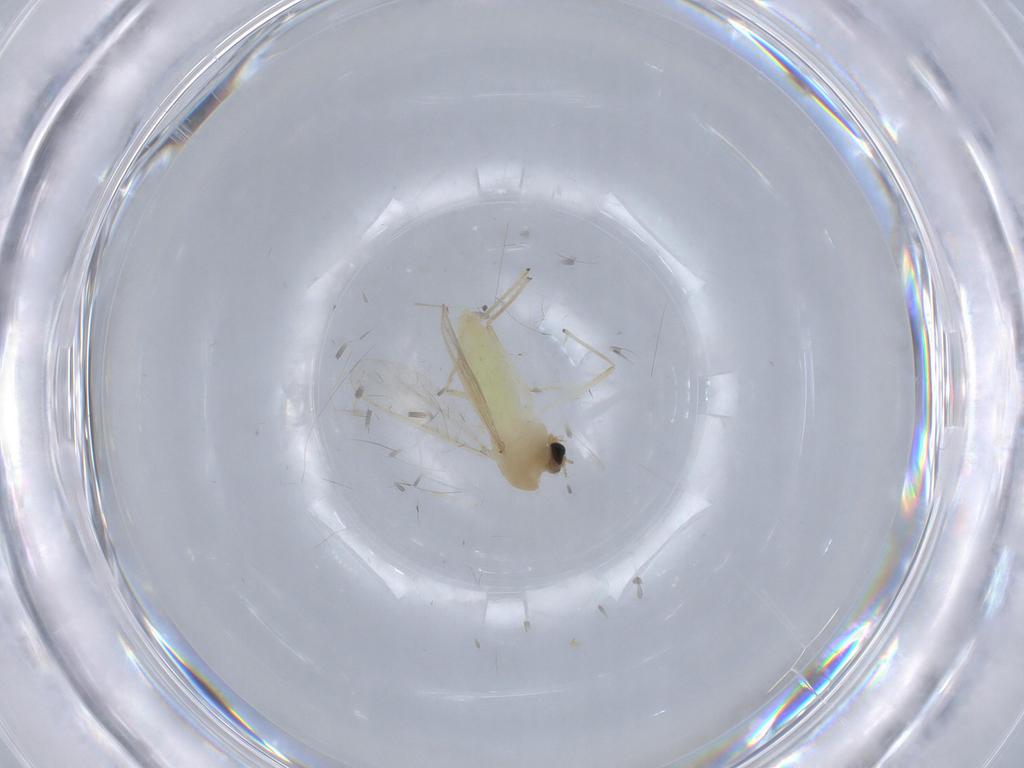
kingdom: Animalia
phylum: Arthropoda
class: Insecta
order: Diptera
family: Chironomidae
